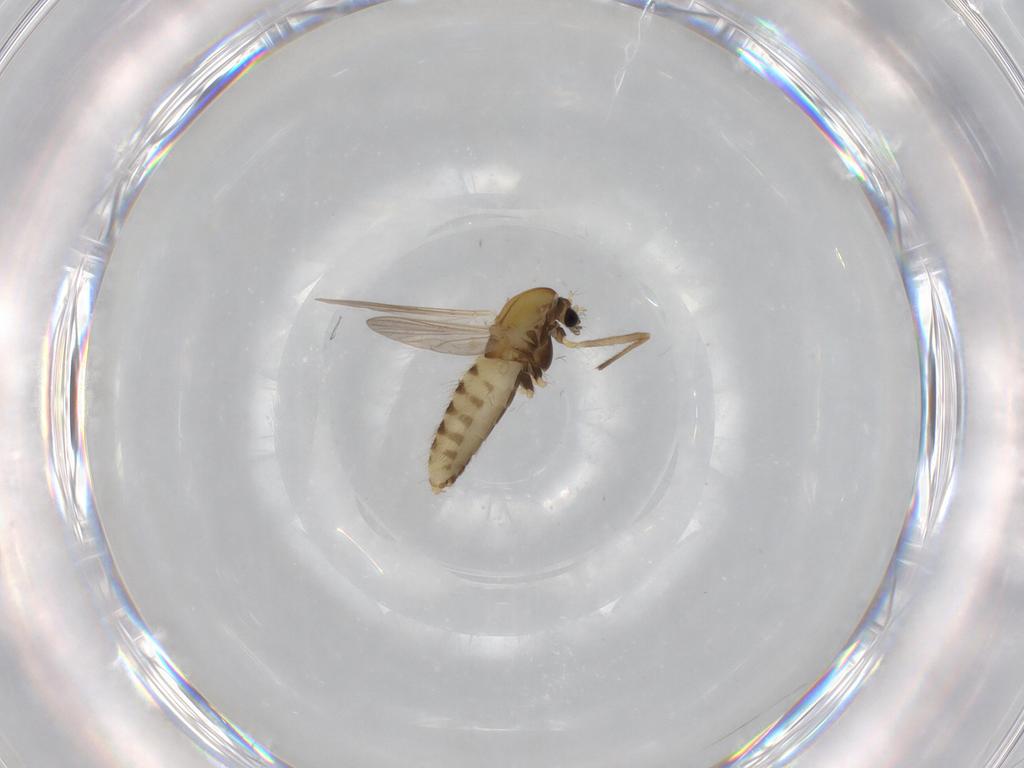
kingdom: Animalia
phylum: Arthropoda
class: Insecta
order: Diptera
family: Chironomidae
